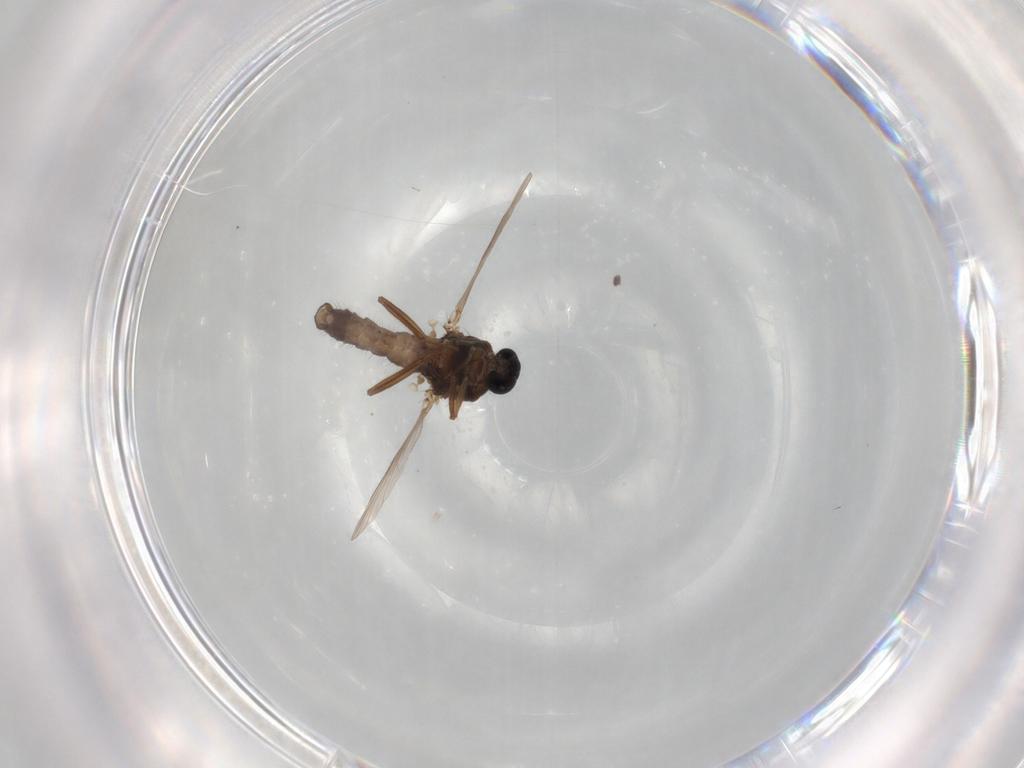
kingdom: Animalia
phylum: Arthropoda
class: Insecta
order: Diptera
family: Ceratopogonidae
